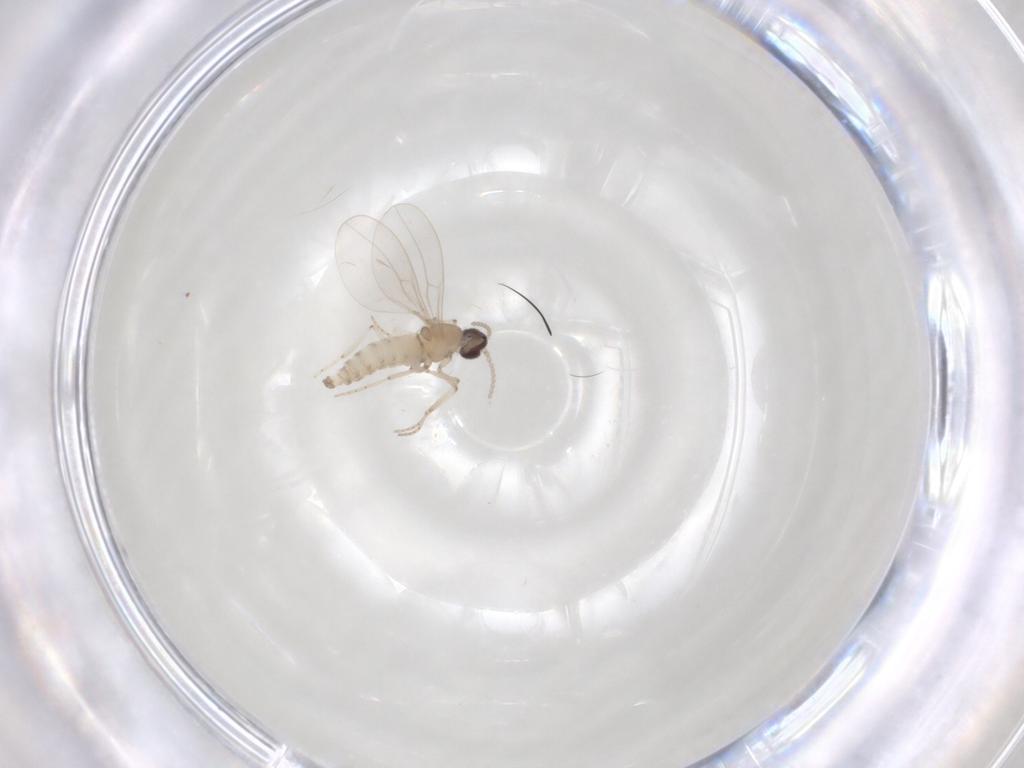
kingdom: Animalia
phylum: Arthropoda
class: Insecta
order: Diptera
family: Cecidomyiidae
